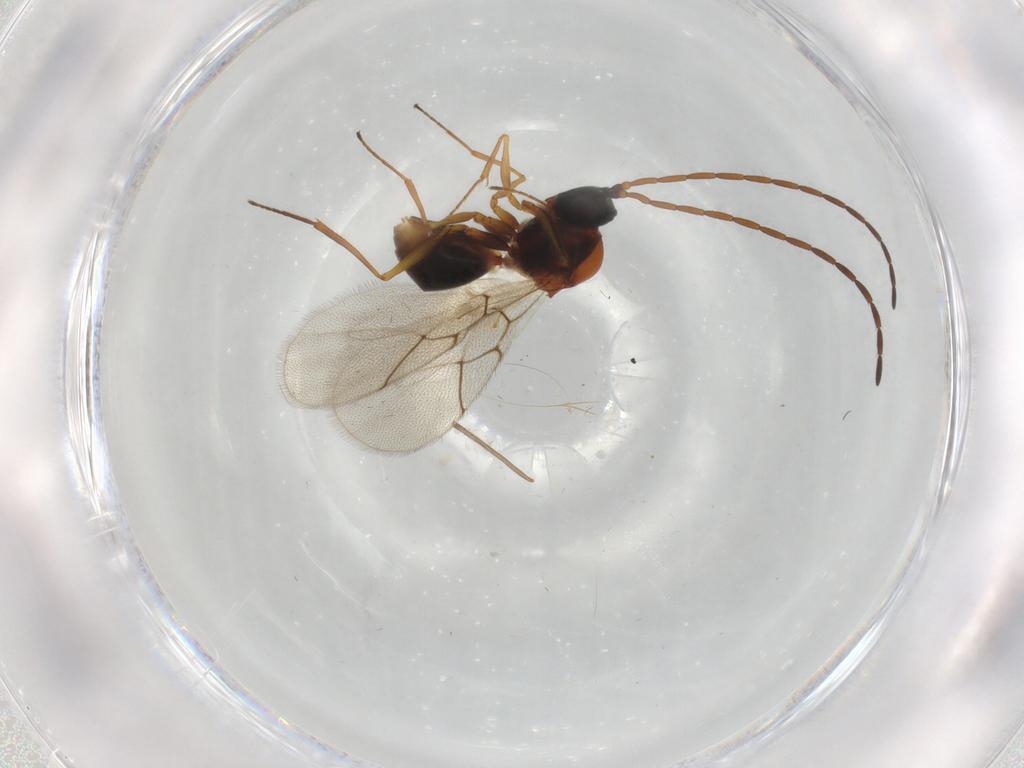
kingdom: Animalia
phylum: Arthropoda
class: Insecta
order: Hymenoptera
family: Figitidae
